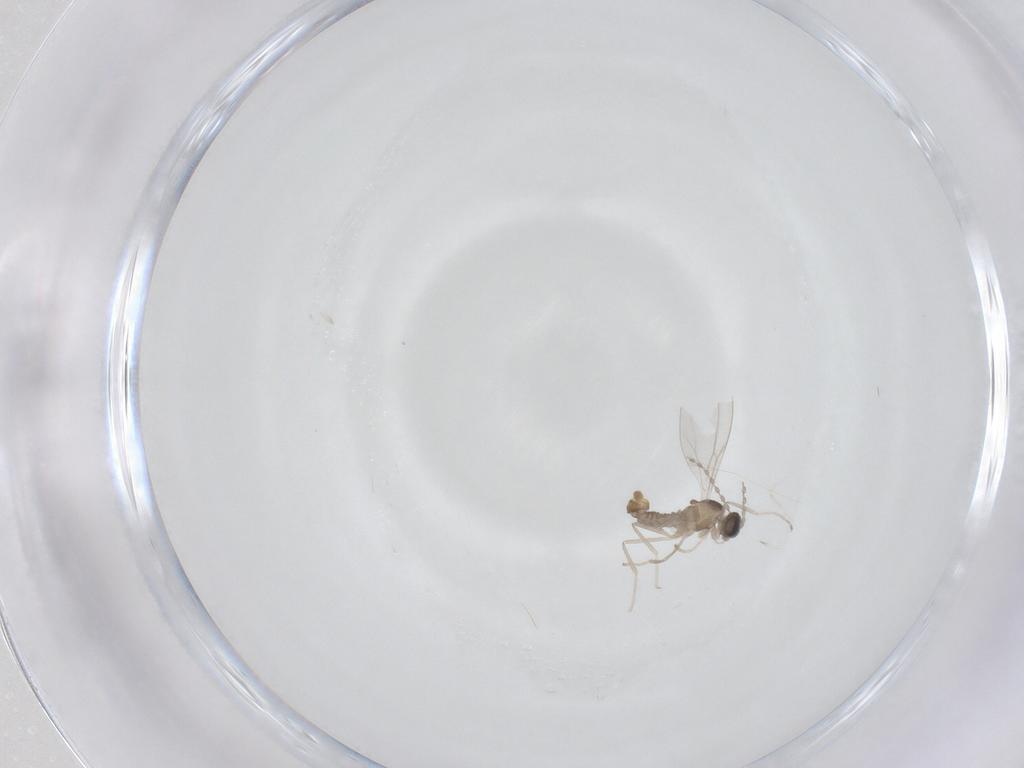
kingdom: Animalia
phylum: Arthropoda
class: Insecta
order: Diptera
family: Cecidomyiidae
